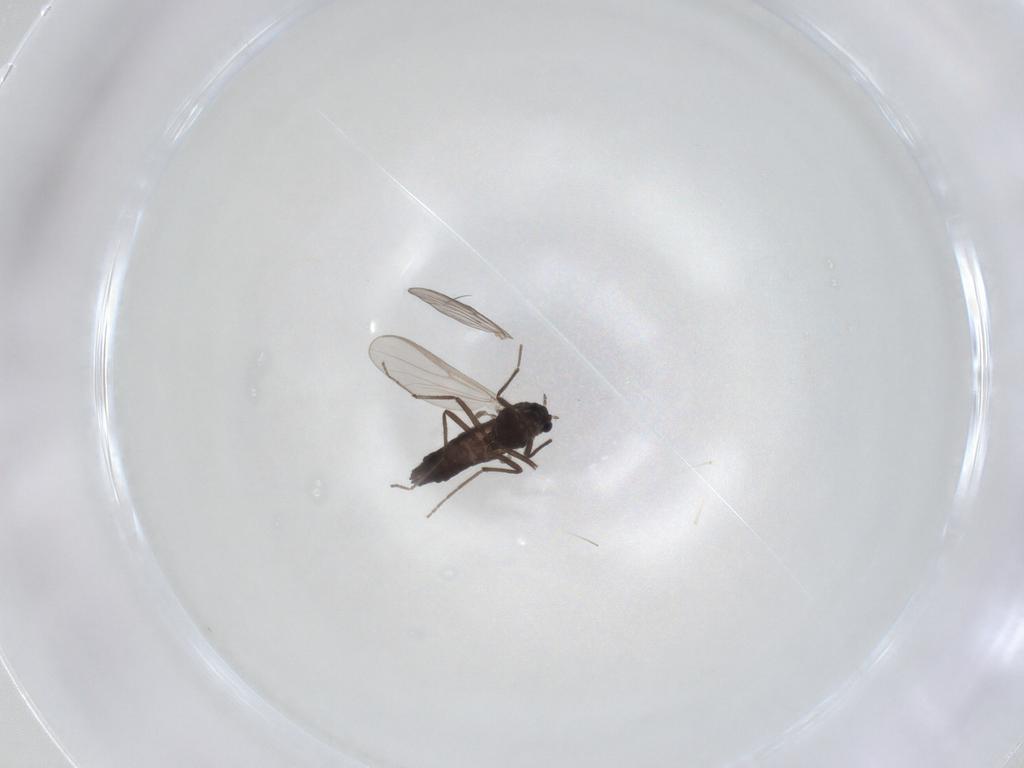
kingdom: Animalia
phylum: Arthropoda
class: Insecta
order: Diptera
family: Chironomidae
